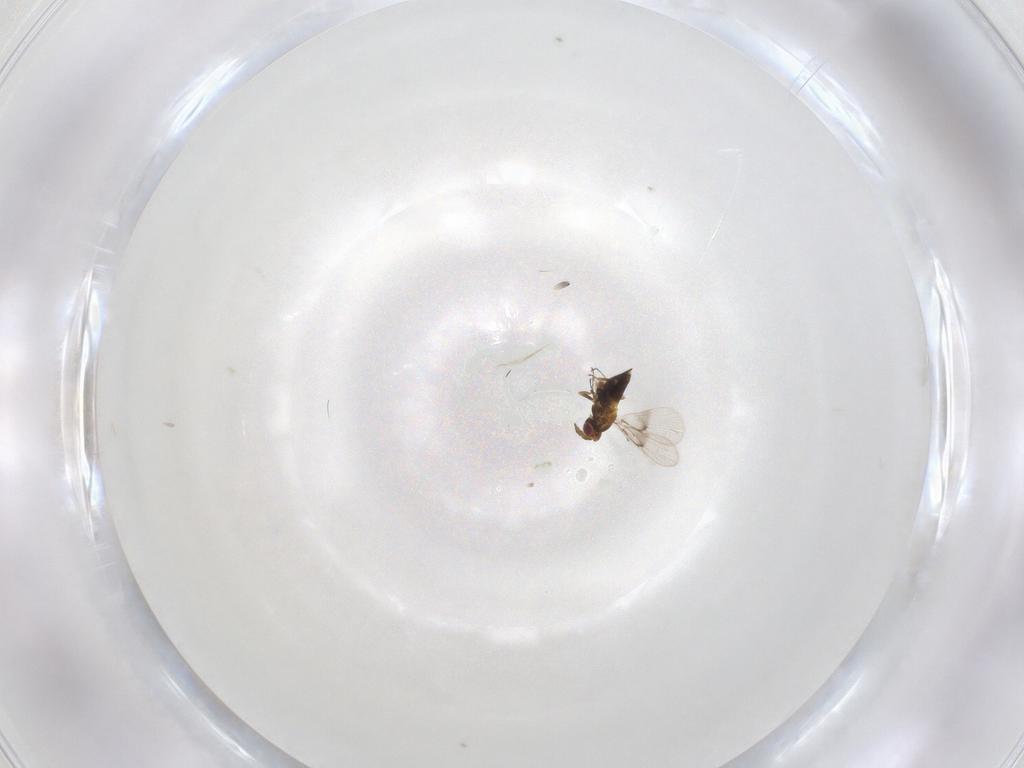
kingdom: Animalia
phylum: Arthropoda
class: Insecta
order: Hymenoptera
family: Trichogrammatidae
